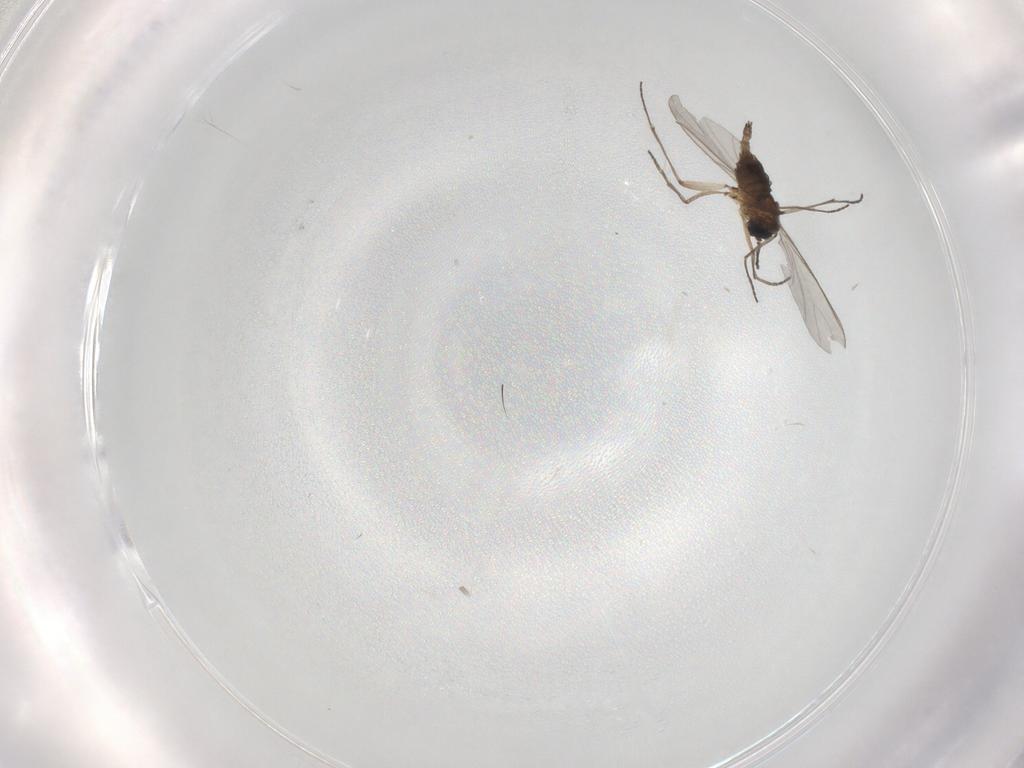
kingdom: Animalia
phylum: Arthropoda
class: Insecta
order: Diptera
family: Sciaridae
